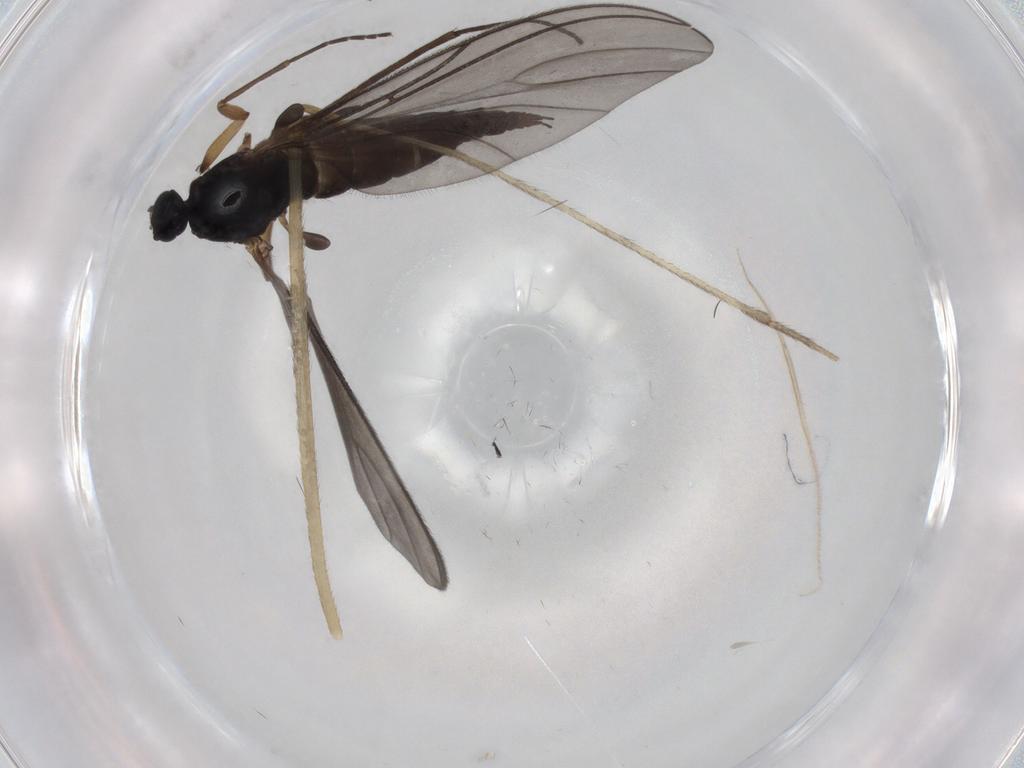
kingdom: Animalia
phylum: Arthropoda
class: Insecta
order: Diptera
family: Sciaridae
